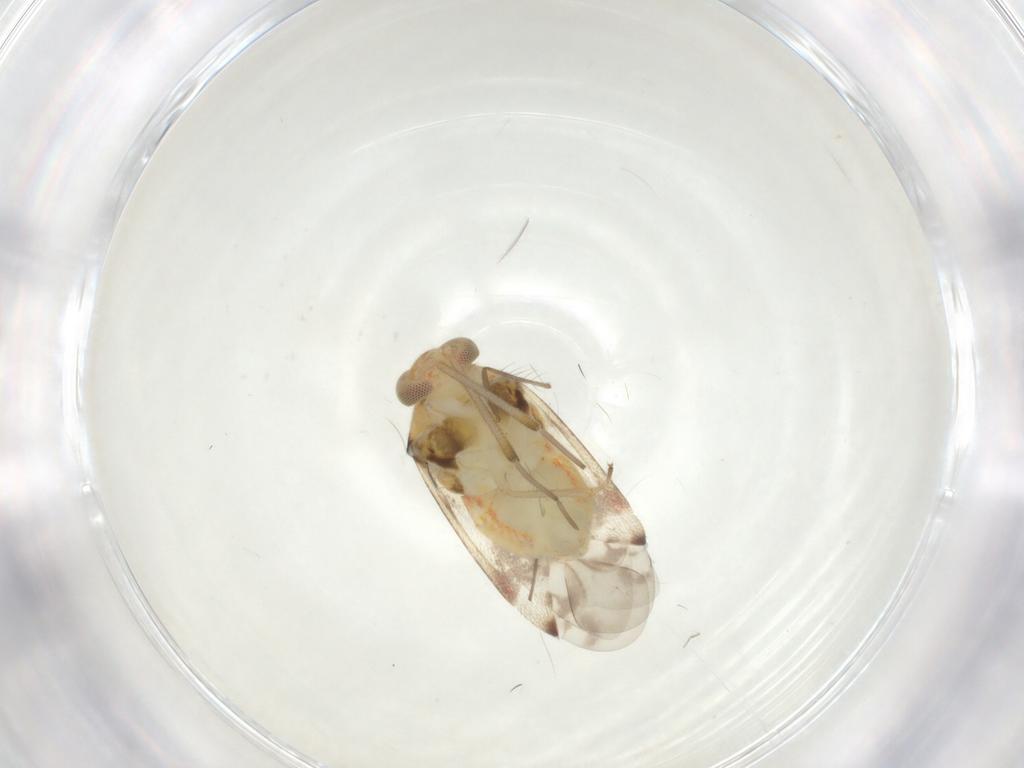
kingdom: Animalia
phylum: Arthropoda
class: Insecta
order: Hemiptera
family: Miridae
